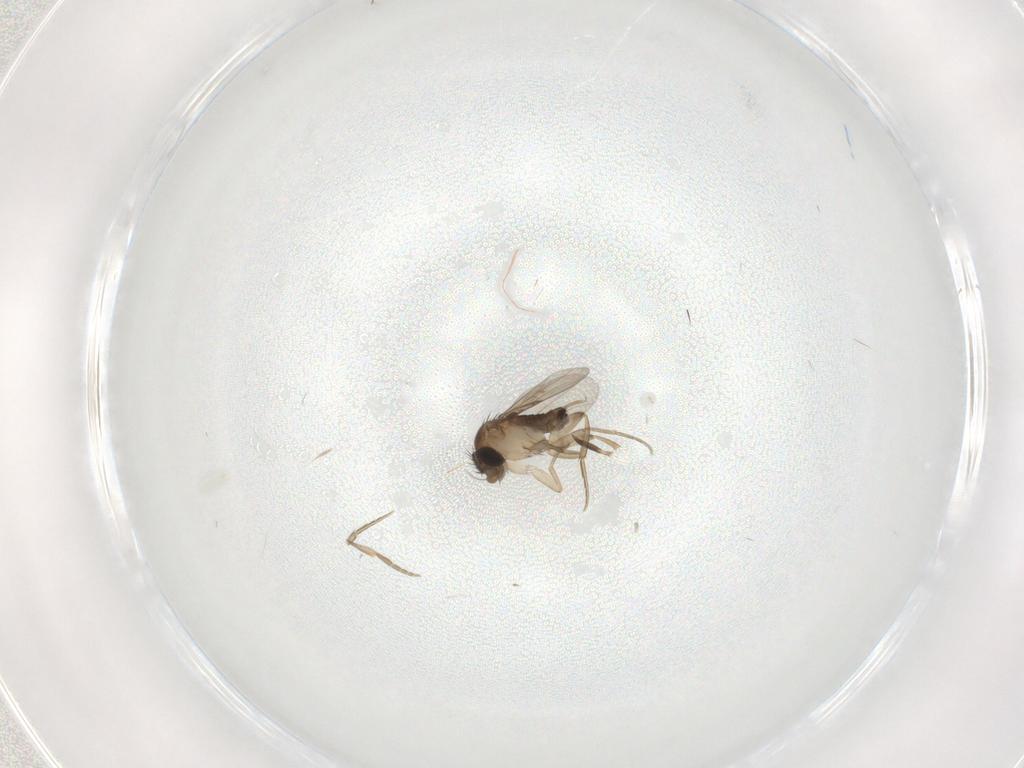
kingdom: Animalia
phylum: Arthropoda
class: Insecta
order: Diptera
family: Phoridae
